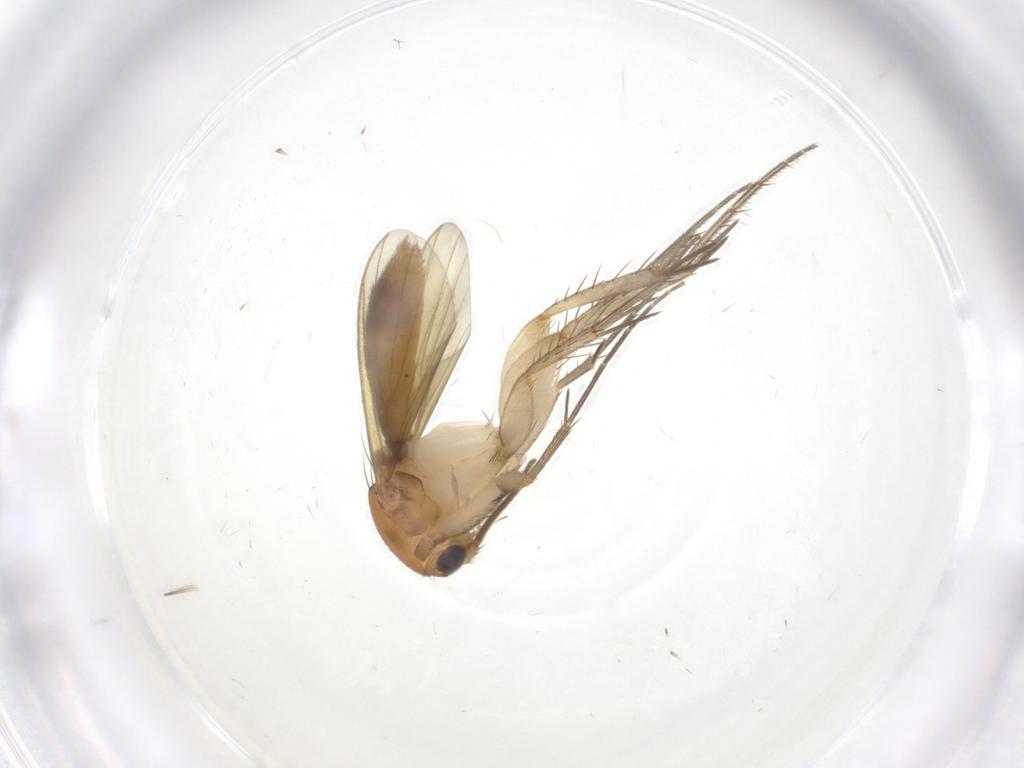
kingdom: Animalia
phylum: Arthropoda
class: Insecta
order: Diptera
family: Mycetophilidae
